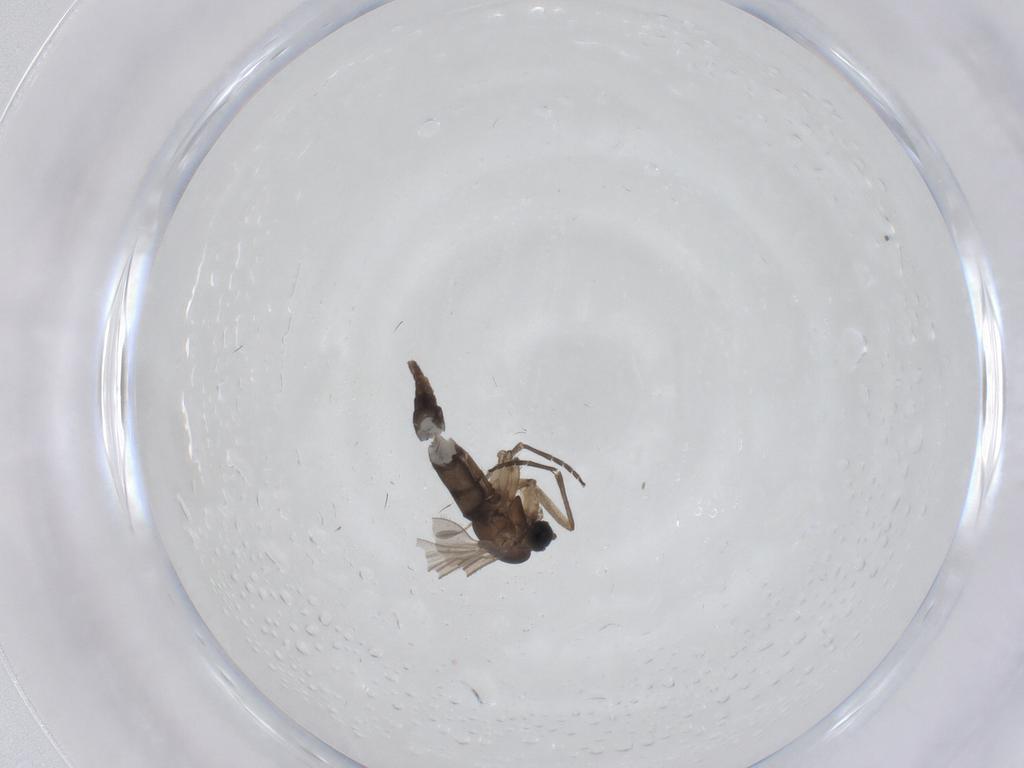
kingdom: Animalia
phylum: Arthropoda
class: Insecta
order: Diptera
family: Sciaridae
